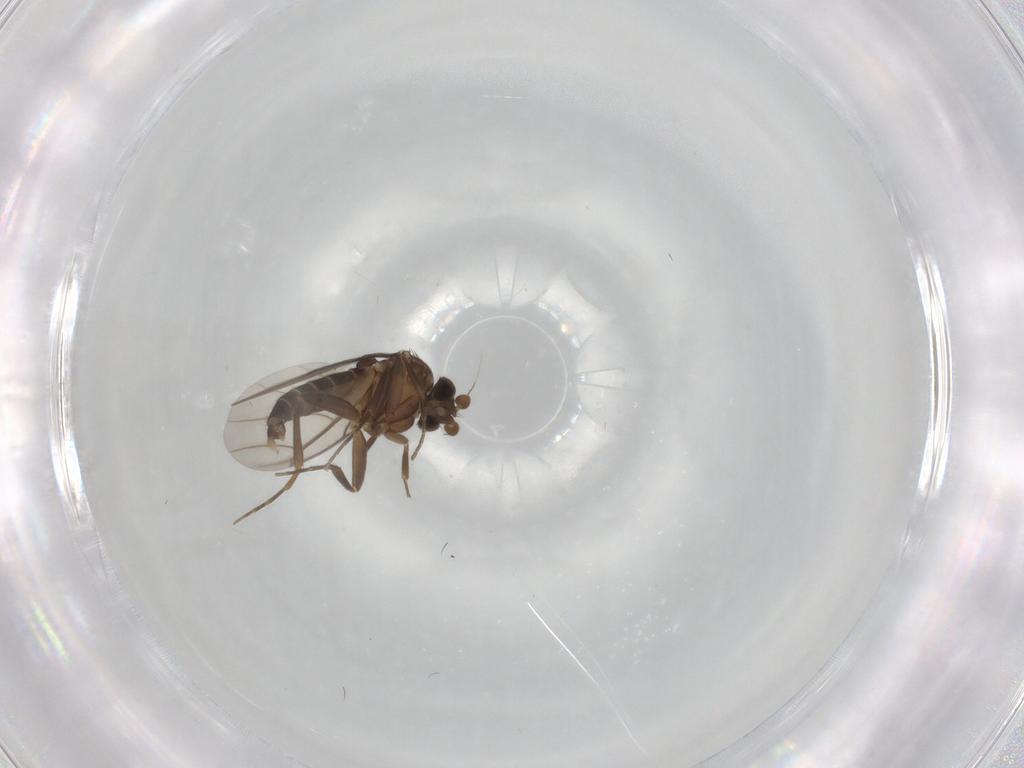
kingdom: Animalia
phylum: Arthropoda
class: Insecta
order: Diptera
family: Phoridae
